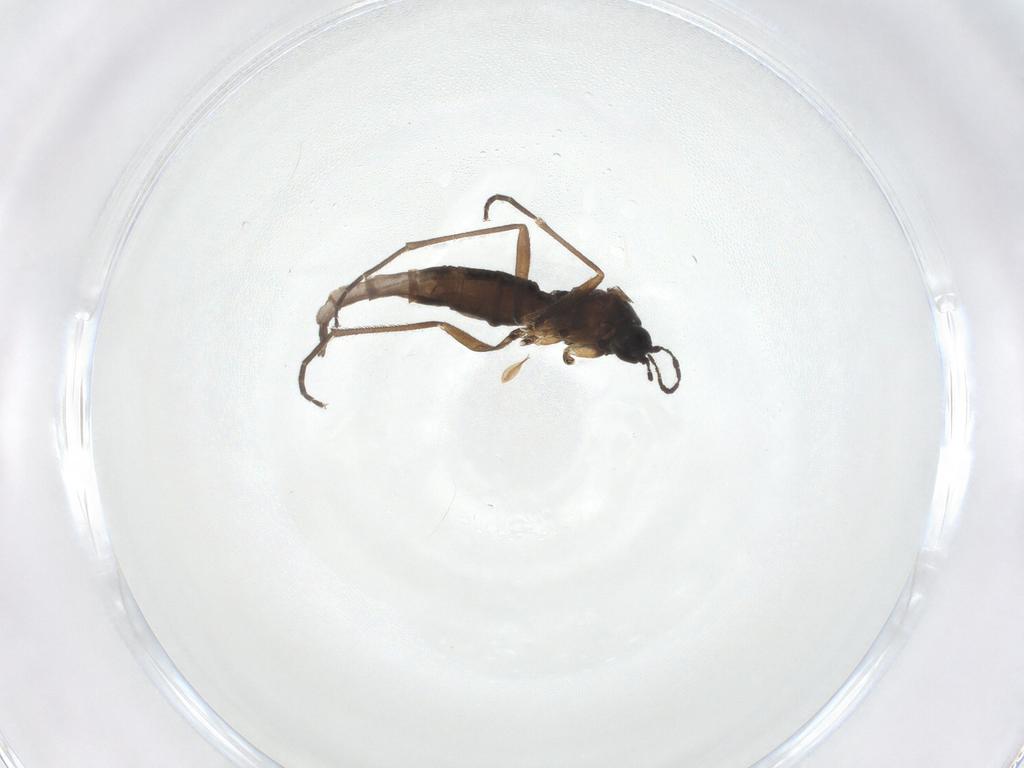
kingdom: Animalia
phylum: Arthropoda
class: Insecta
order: Diptera
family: Sciaridae
